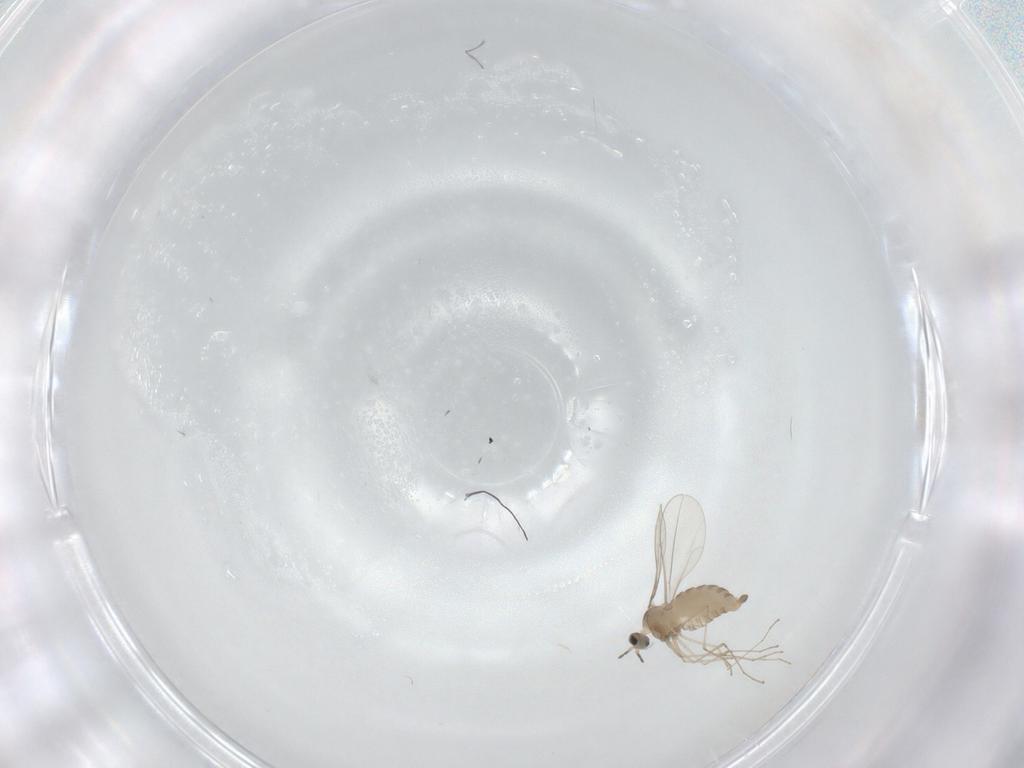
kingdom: Animalia
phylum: Arthropoda
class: Insecta
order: Diptera
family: Cecidomyiidae
